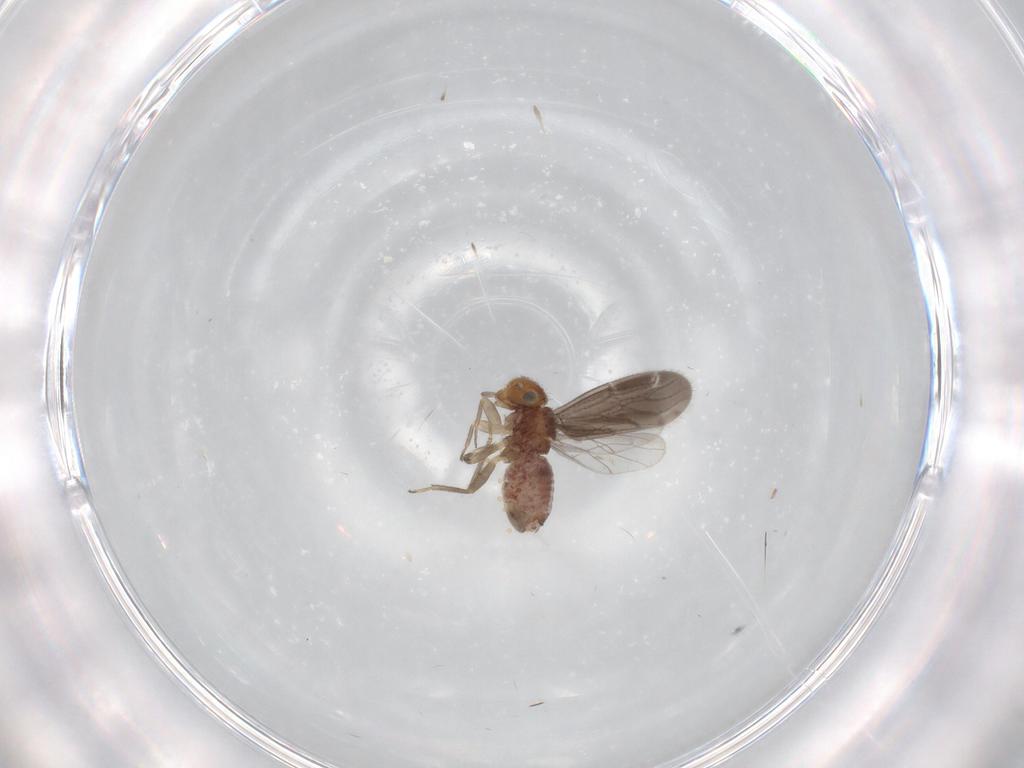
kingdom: Animalia
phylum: Arthropoda
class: Insecta
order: Psocodea
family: Ectopsocidae
